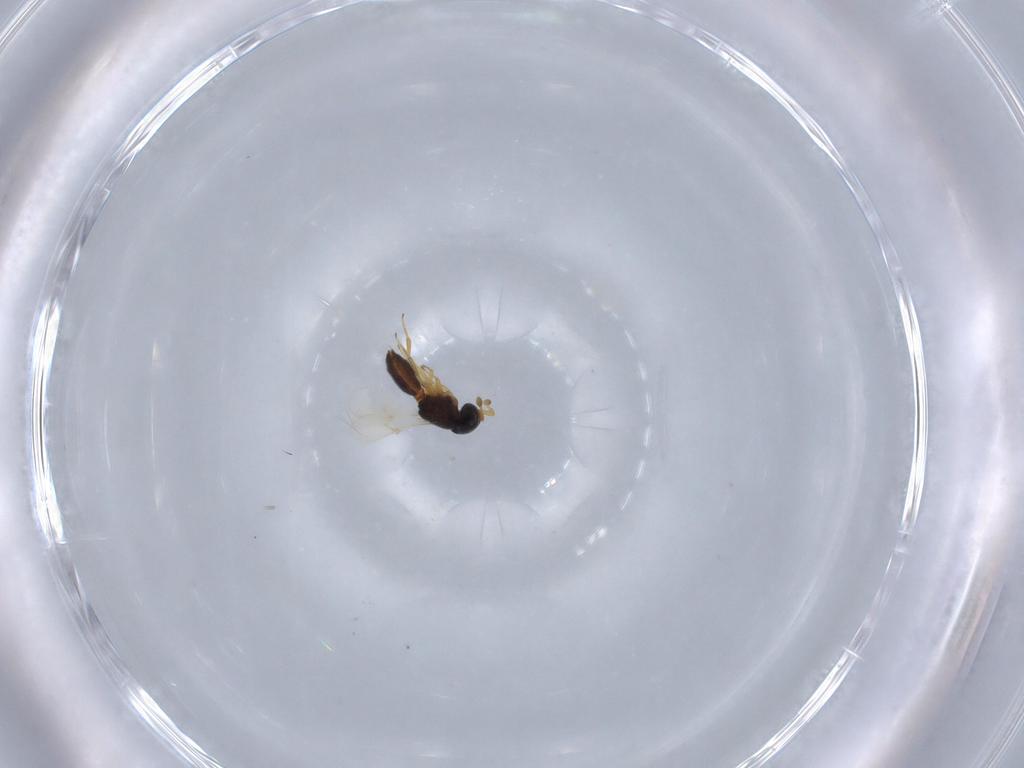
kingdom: Animalia
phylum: Arthropoda
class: Insecta
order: Hymenoptera
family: Scelionidae
